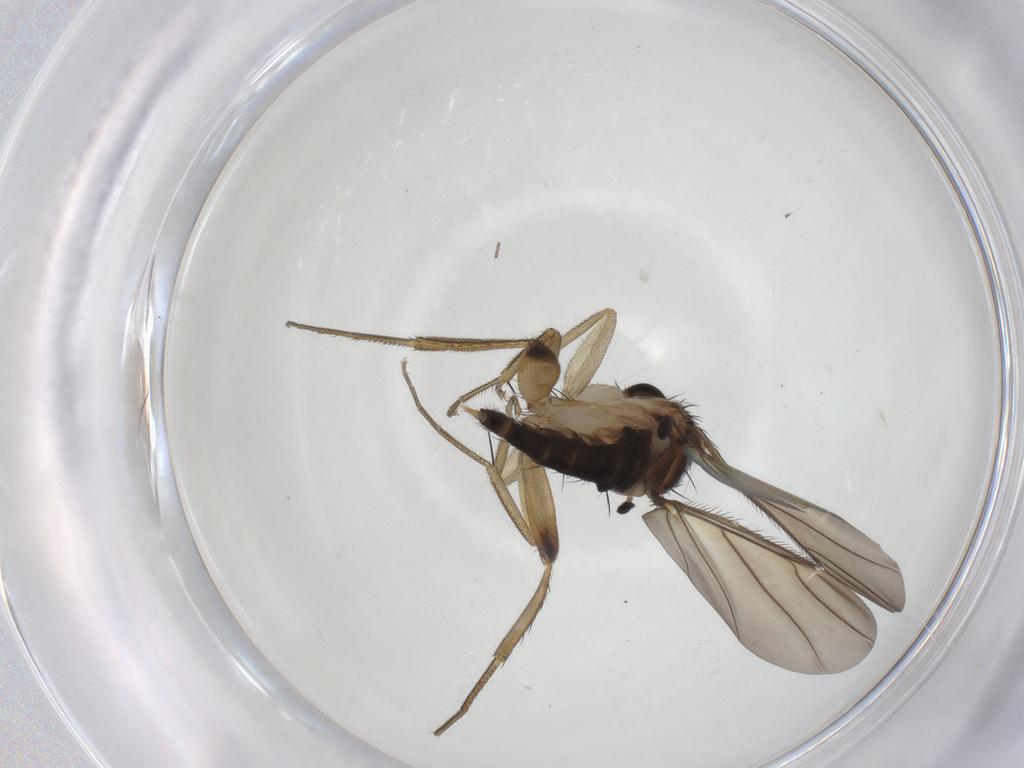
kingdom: Animalia
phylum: Arthropoda
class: Insecta
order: Diptera
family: Phoridae
